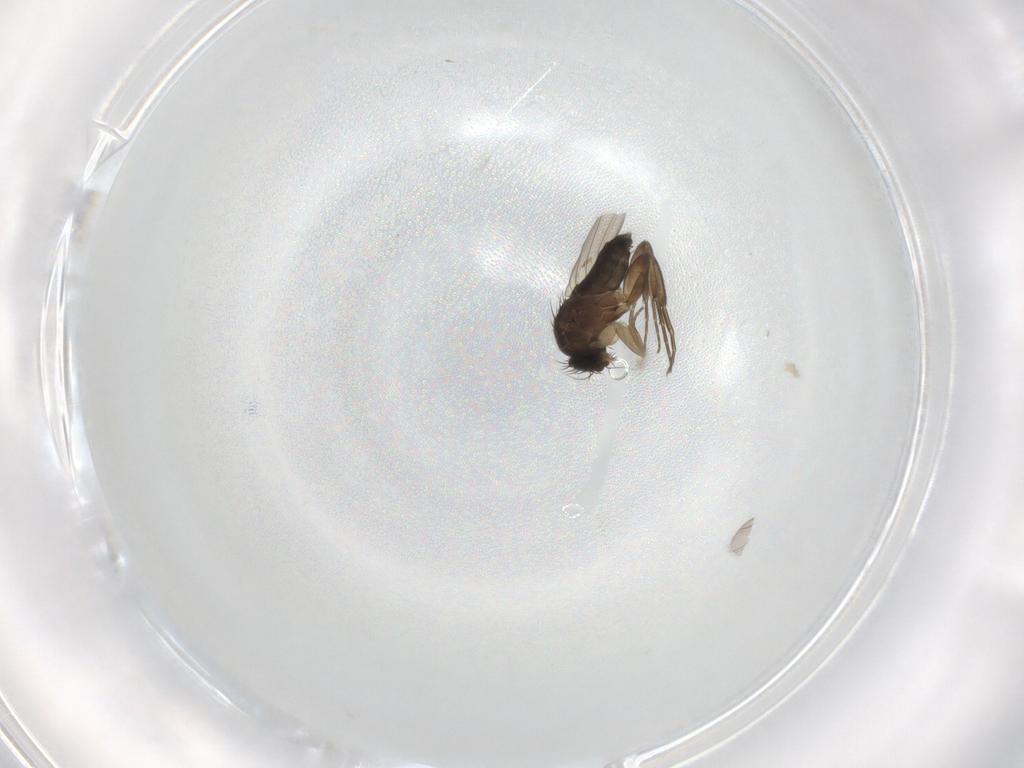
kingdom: Animalia
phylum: Arthropoda
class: Insecta
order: Diptera
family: Phoridae
